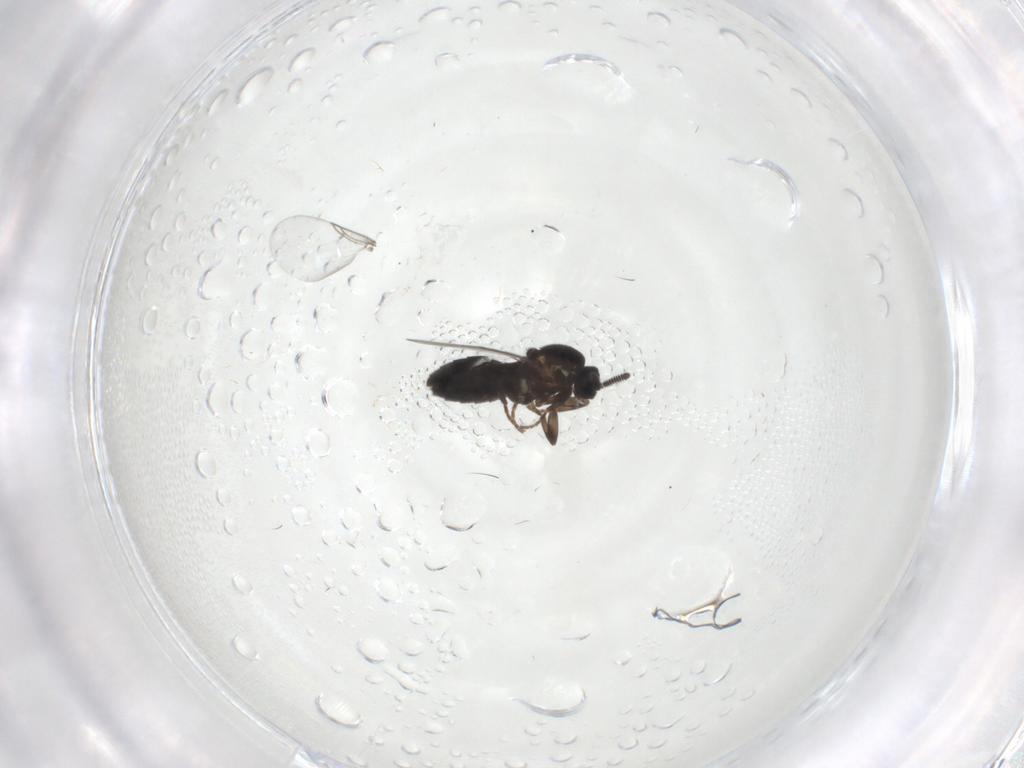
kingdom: Animalia
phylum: Arthropoda
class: Insecta
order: Diptera
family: Calliphoridae
